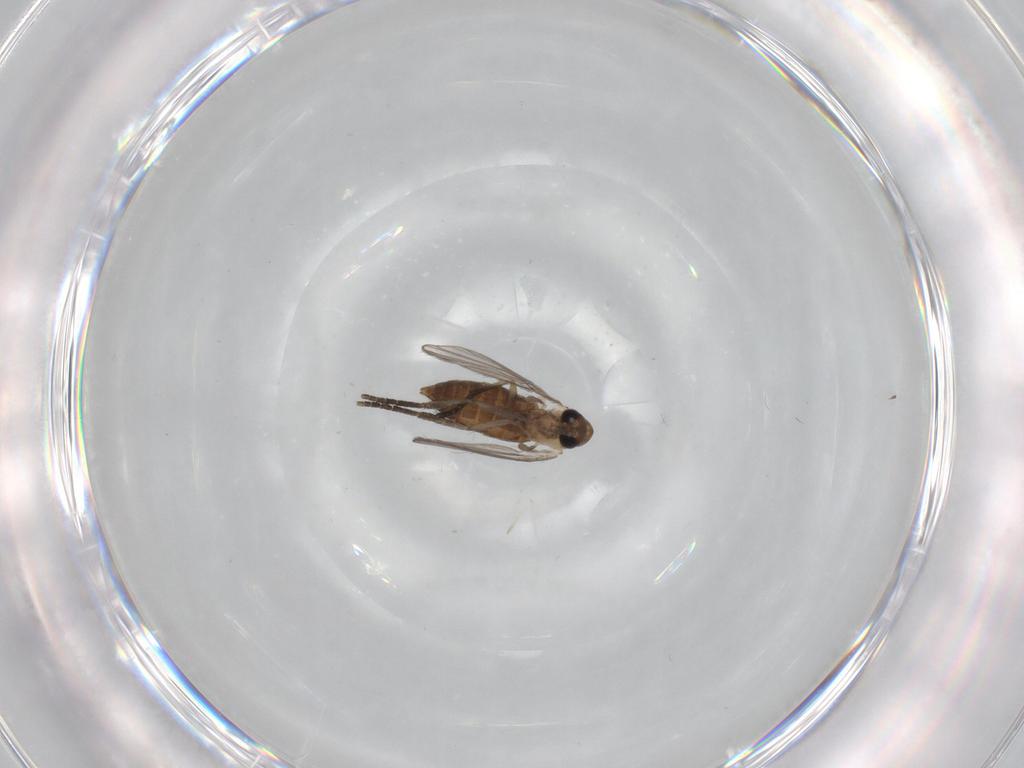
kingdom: Animalia
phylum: Arthropoda
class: Insecta
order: Diptera
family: Psychodidae
